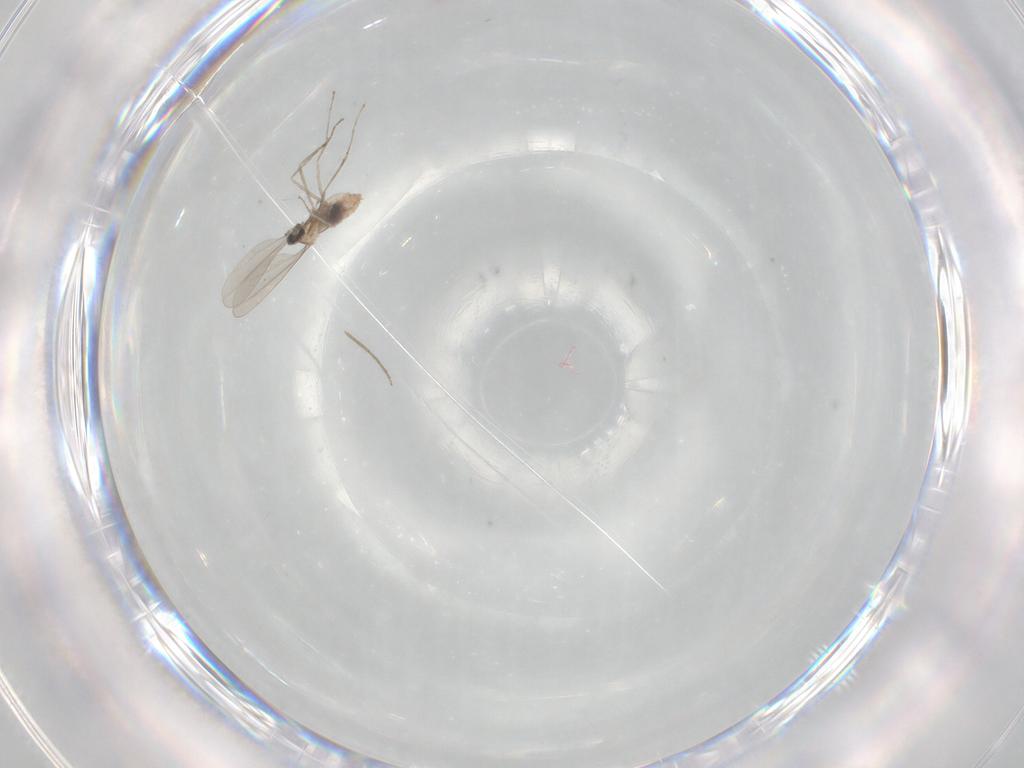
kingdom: Animalia
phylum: Arthropoda
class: Insecta
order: Diptera
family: Cecidomyiidae
